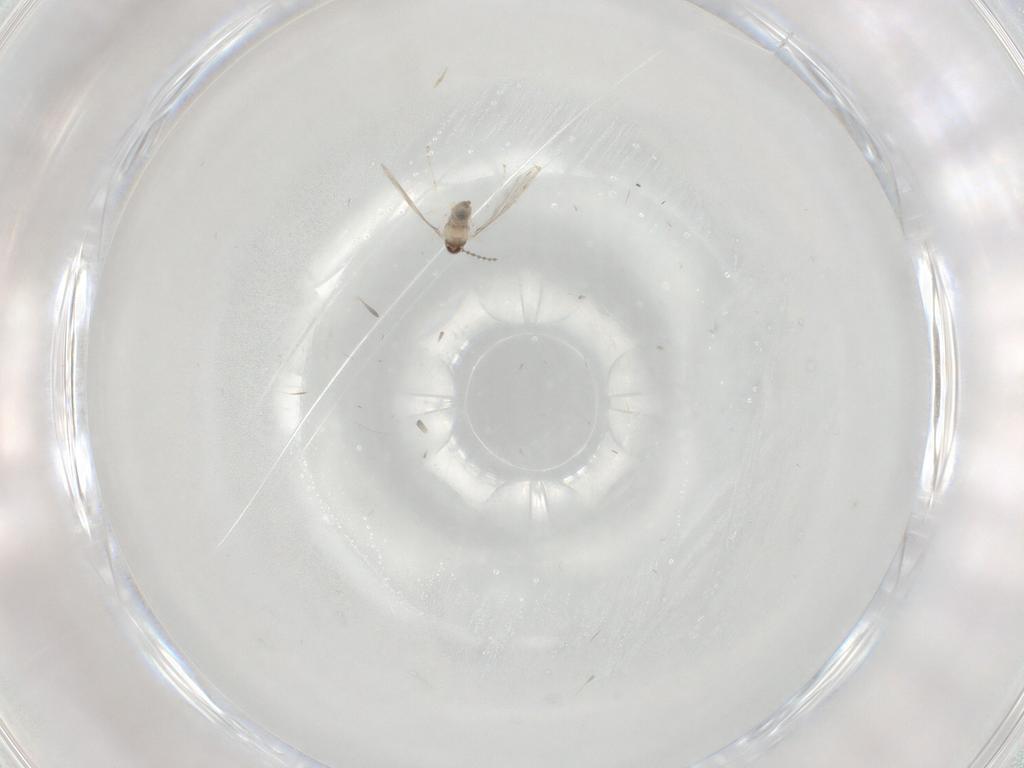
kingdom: Animalia
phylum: Arthropoda
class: Insecta
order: Diptera
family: Cecidomyiidae
